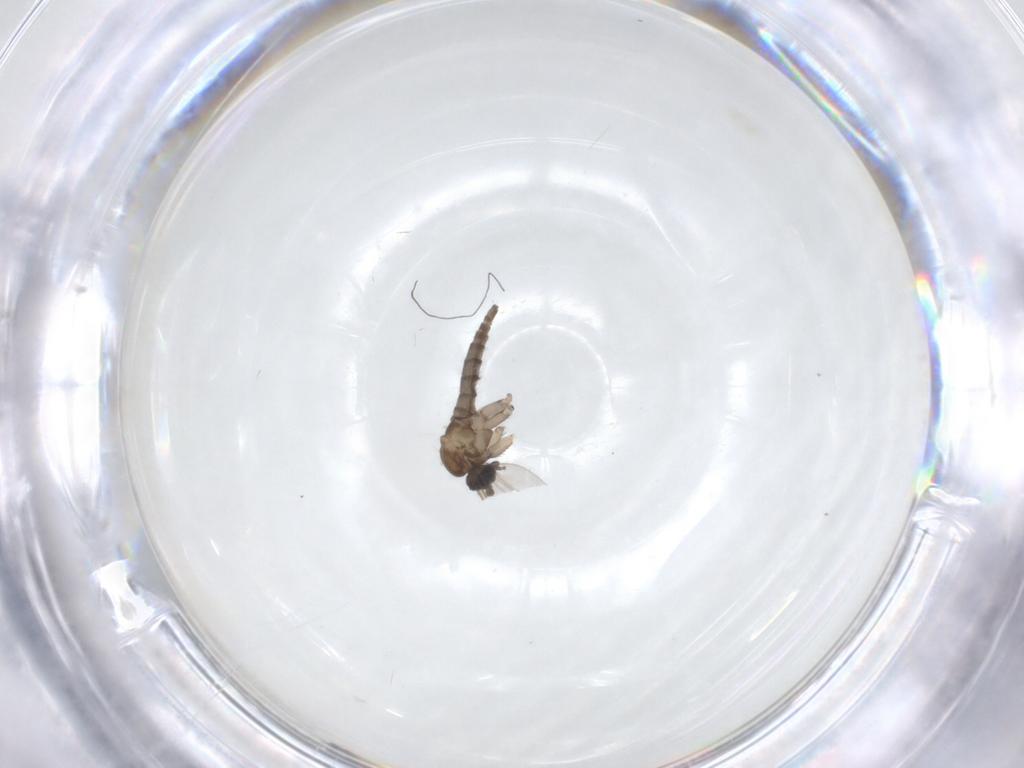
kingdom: Animalia
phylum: Arthropoda
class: Insecta
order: Diptera
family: Sciaridae
